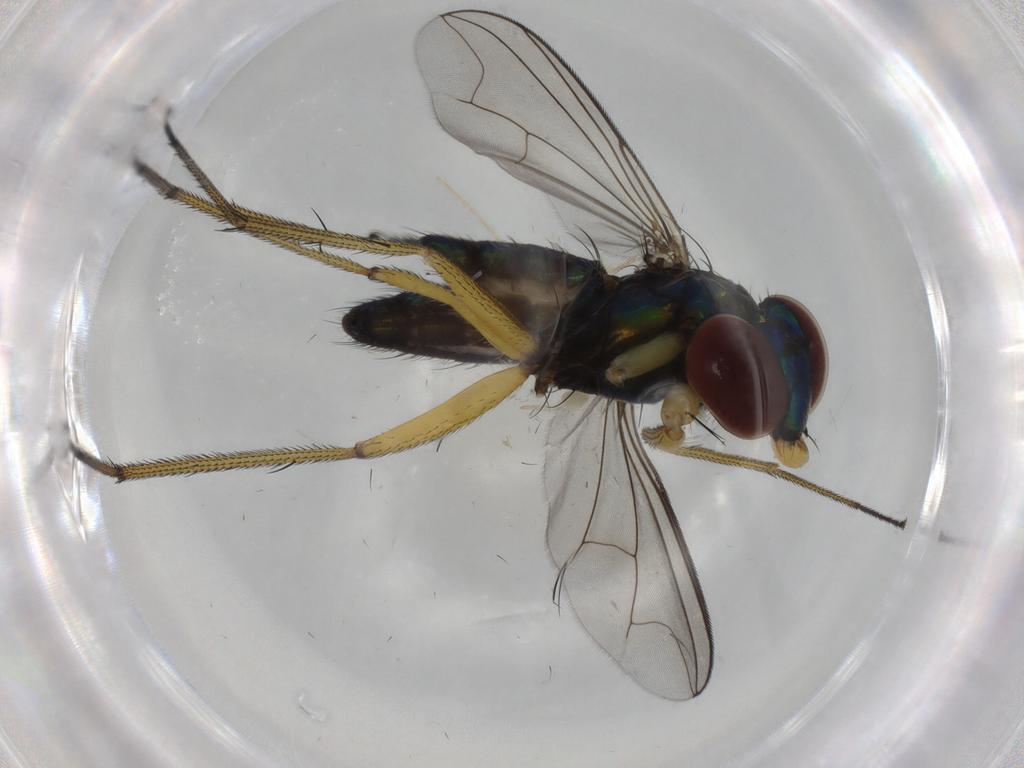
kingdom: Animalia
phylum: Arthropoda
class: Insecta
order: Diptera
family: Dolichopodidae
